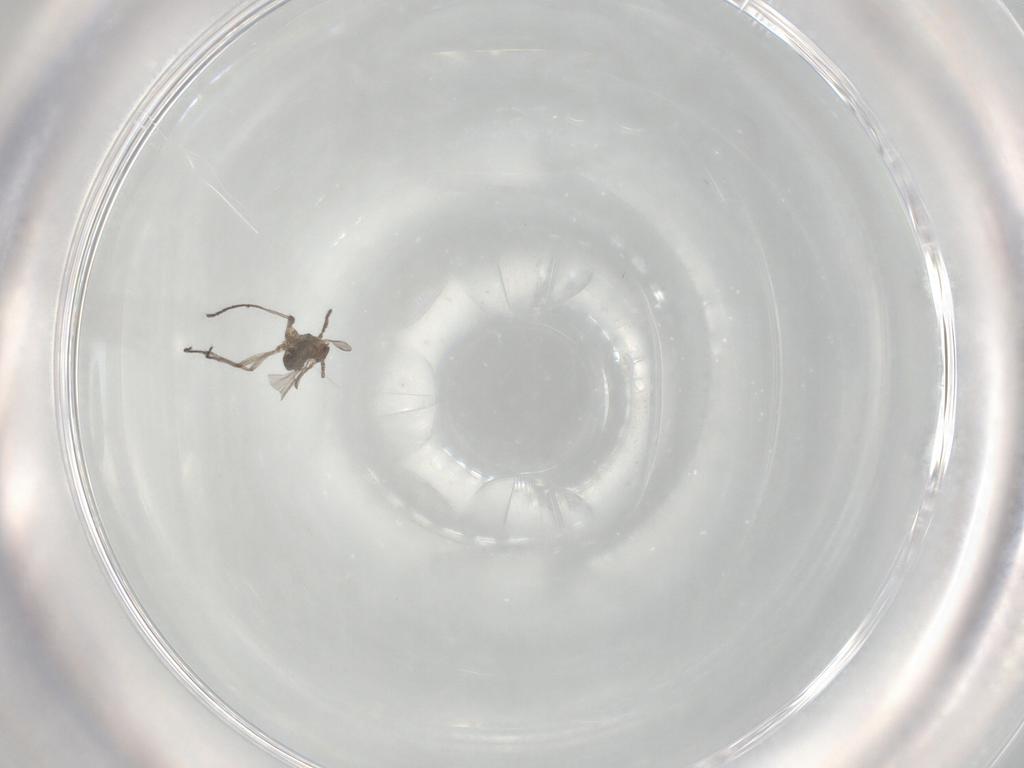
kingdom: Animalia
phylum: Arthropoda
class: Insecta
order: Diptera
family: Sciaridae
